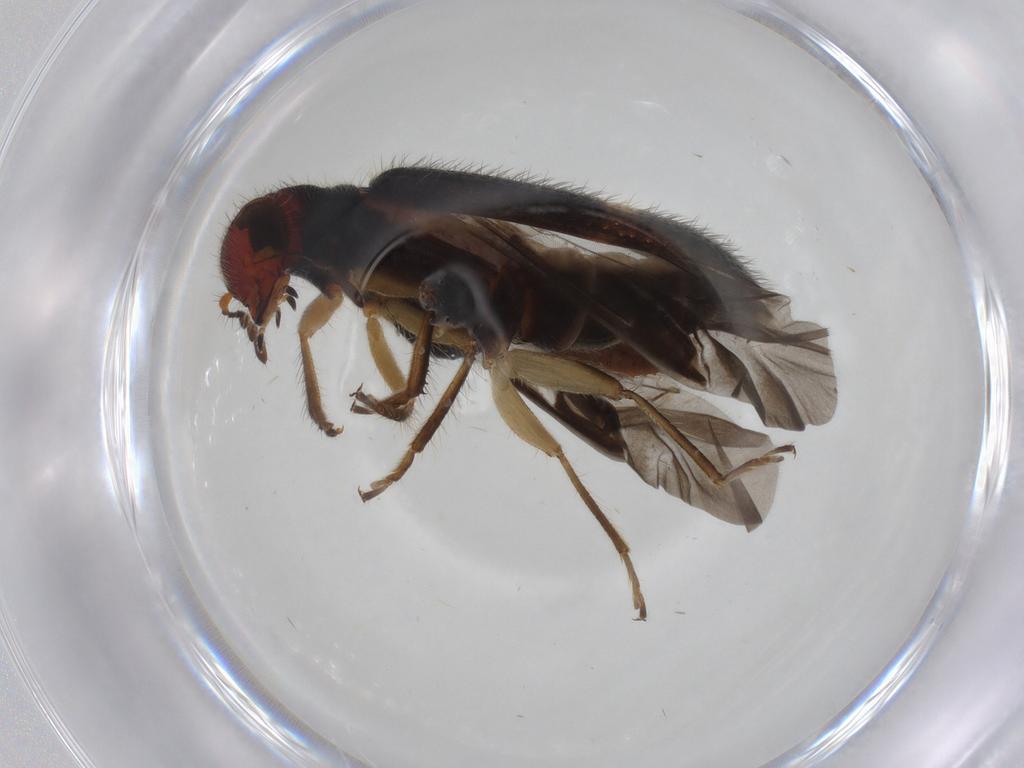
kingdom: Animalia
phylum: Arthropoda
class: Insecta
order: Coleoptera
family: Cleridae
